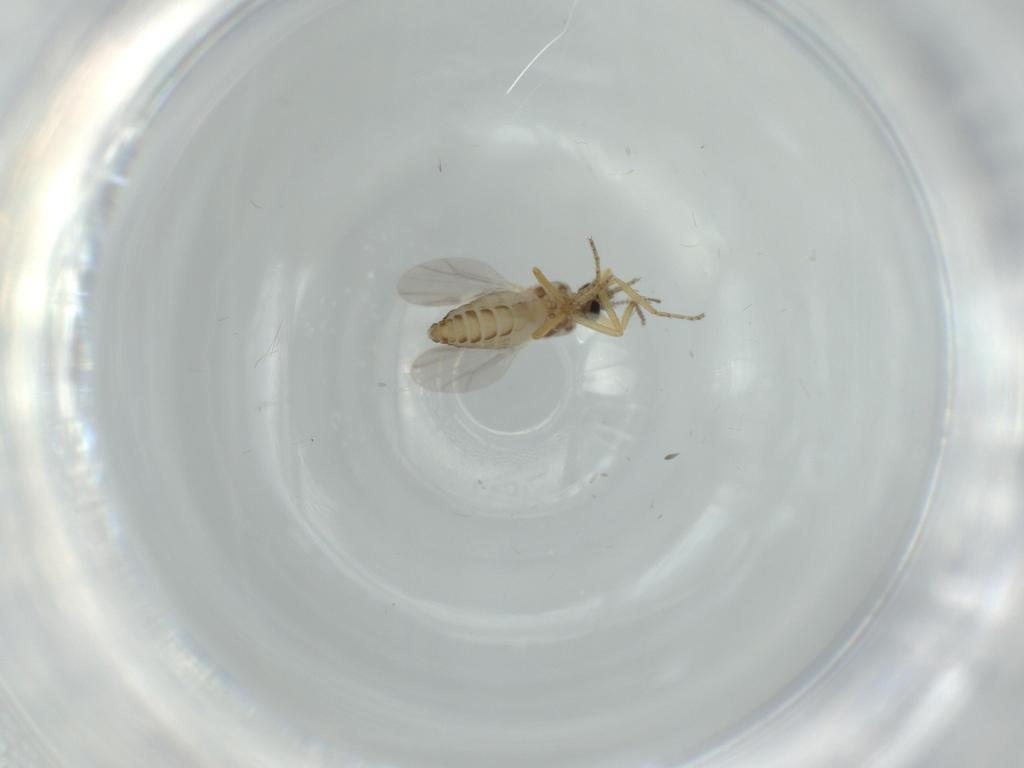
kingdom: Animalia
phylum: Arthropoda
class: Insecta
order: Diptera
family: Ceratopogonidae
